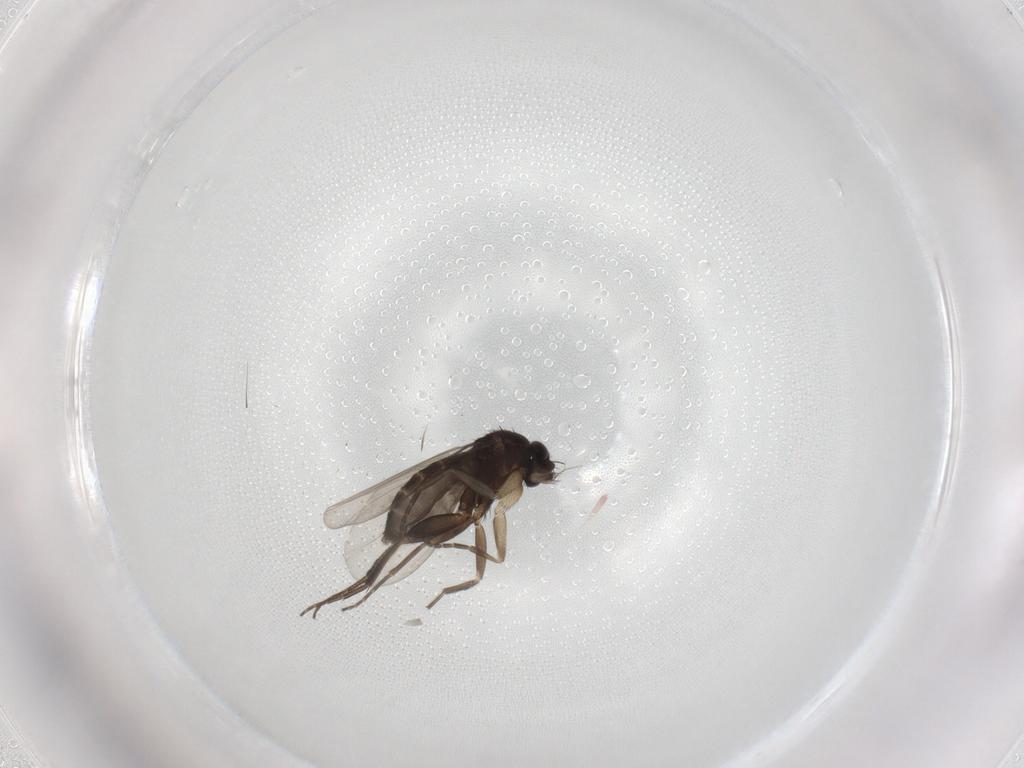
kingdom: Animalia
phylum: Arthropoda
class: Insecta
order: Diptera
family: Phoridae
